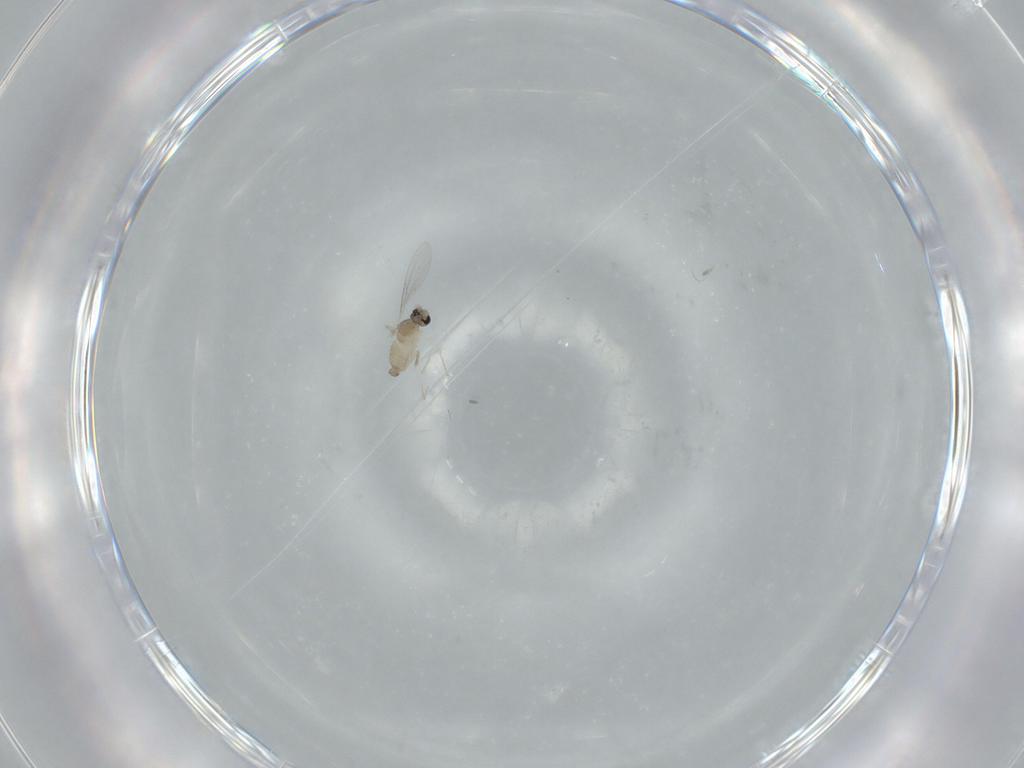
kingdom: Animalia
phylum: Arthropoda
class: Insecta
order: Diptera
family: Cecidomyiidae
